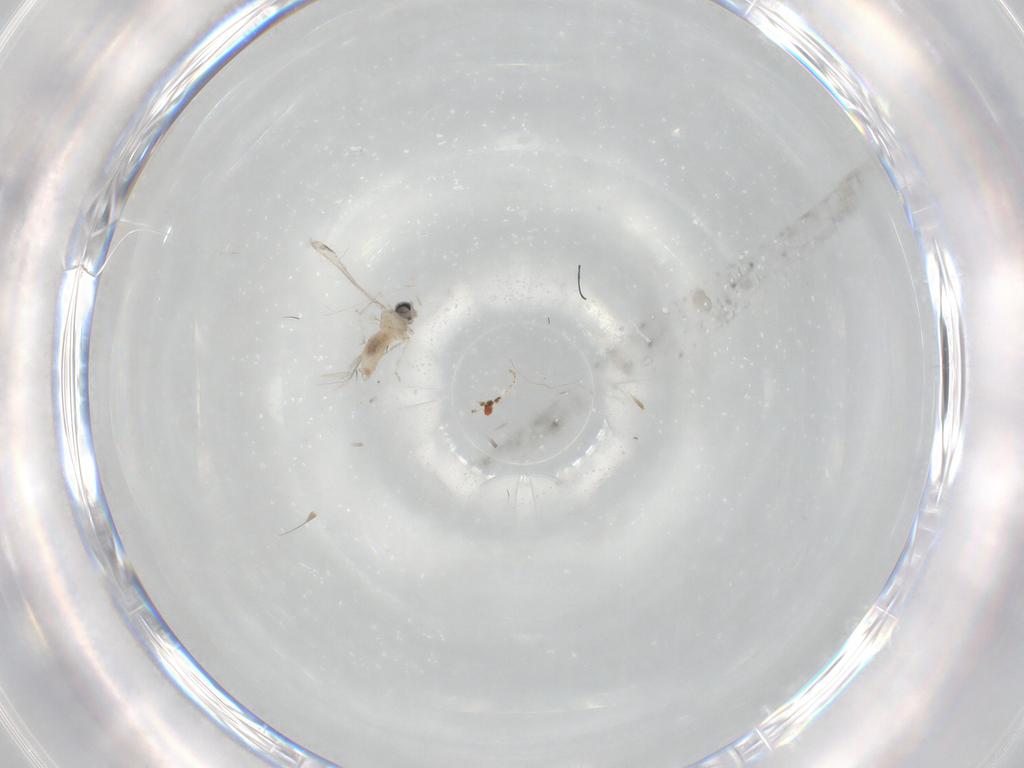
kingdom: Animalia
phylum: Arthropoda
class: Insecta
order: Diptera
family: Cecidomyiidae
